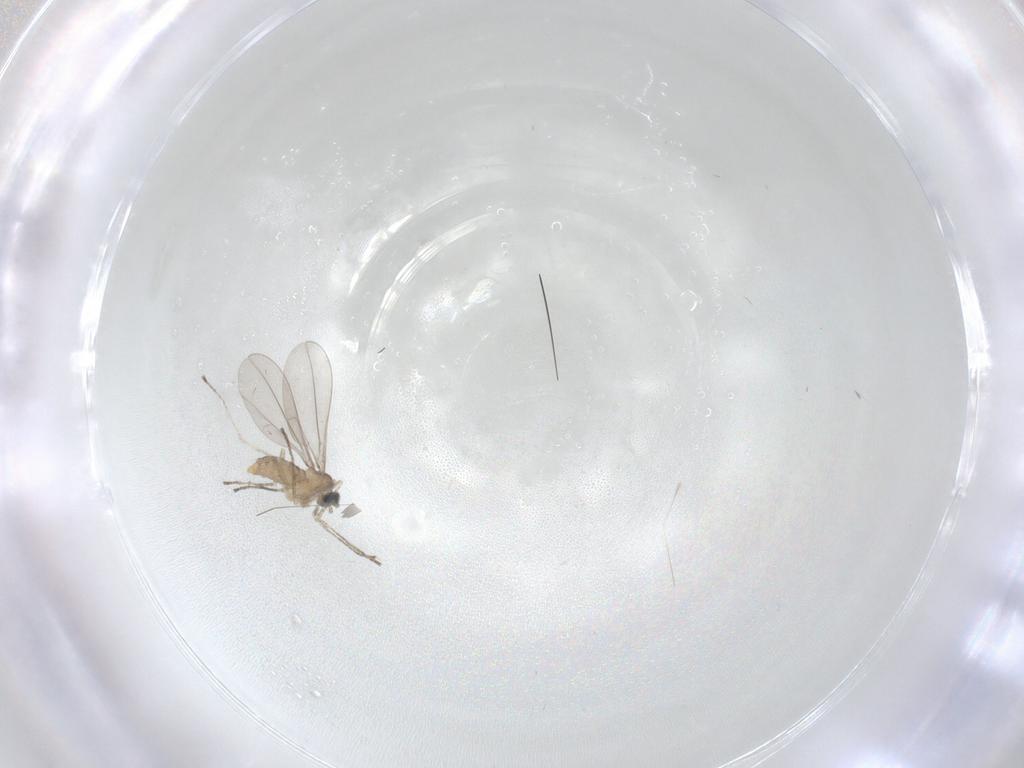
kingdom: Animalia
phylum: Arthropoda
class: Insecta
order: Diptera
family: Cecidomyiidae
